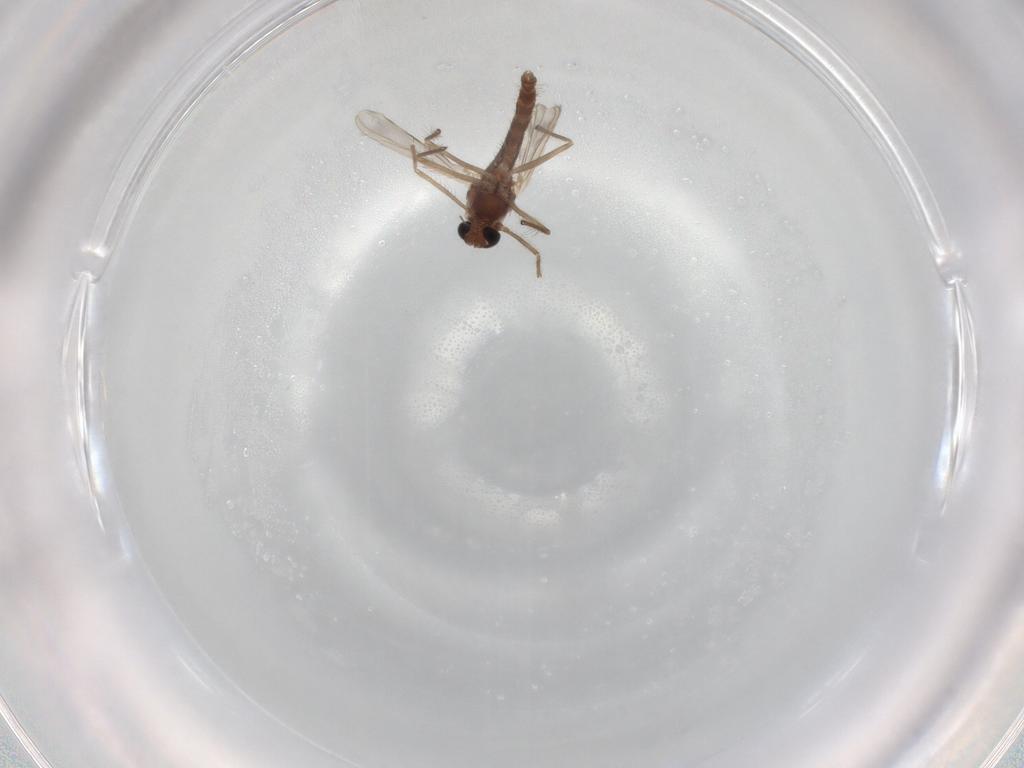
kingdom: Animalia
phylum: Arthropoda
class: Insecta
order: Diptera
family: Chironomidae
